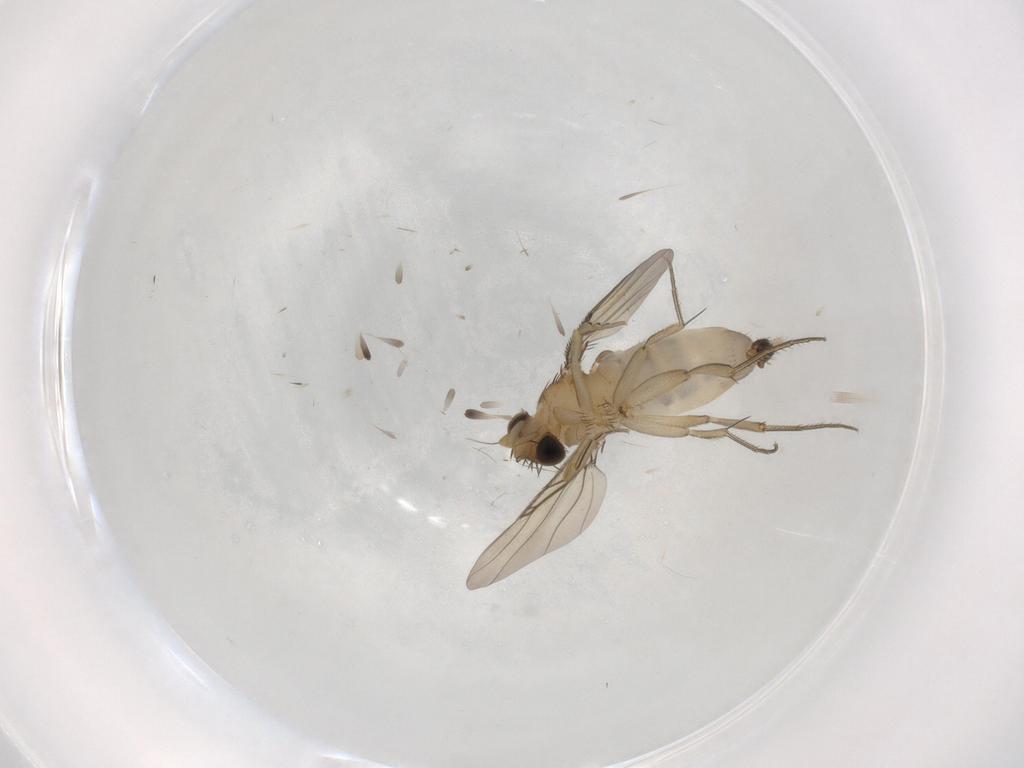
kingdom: Animalia
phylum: Arthropoda
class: Insecta
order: Diptera
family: Phoridae
